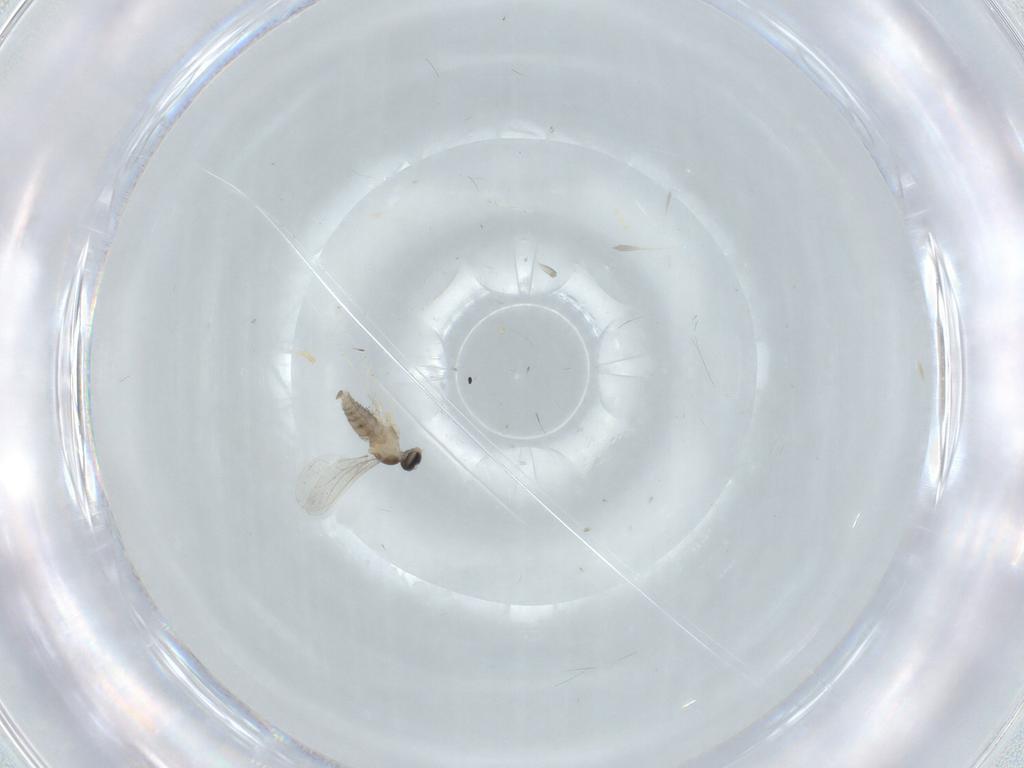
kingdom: Animalia
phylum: Arthropoda
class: Insecta
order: Diptera
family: Cecidomyiidae
